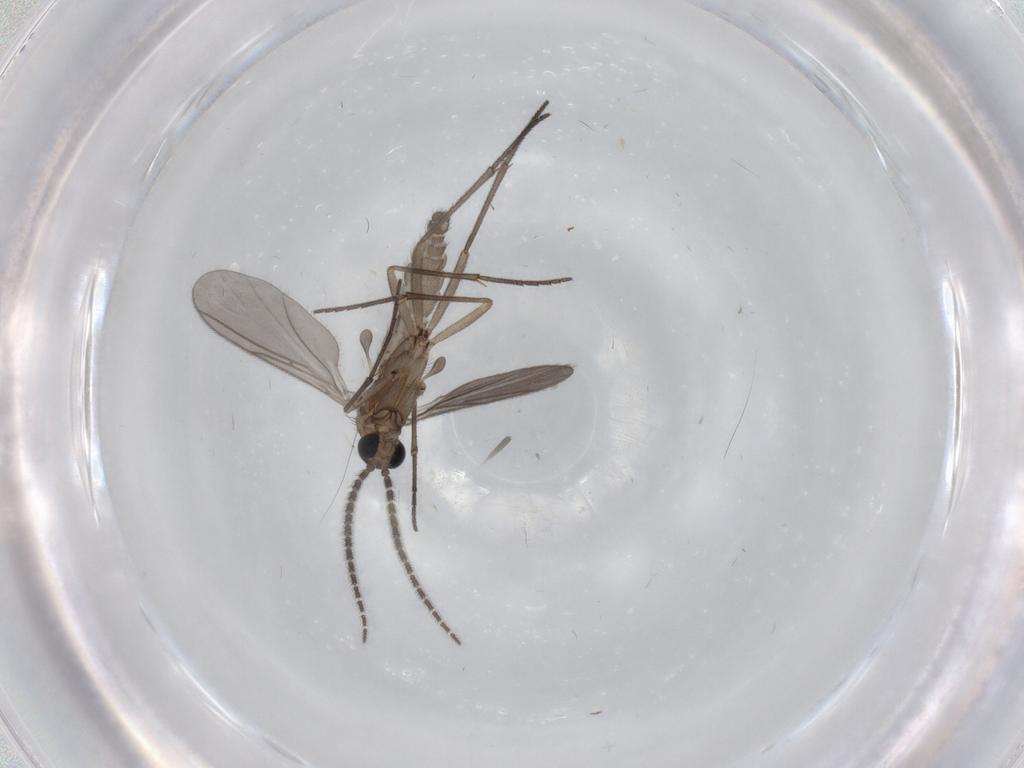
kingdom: Animalia
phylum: Arthropoda
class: Insecta
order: Diptera
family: Sciaridae
